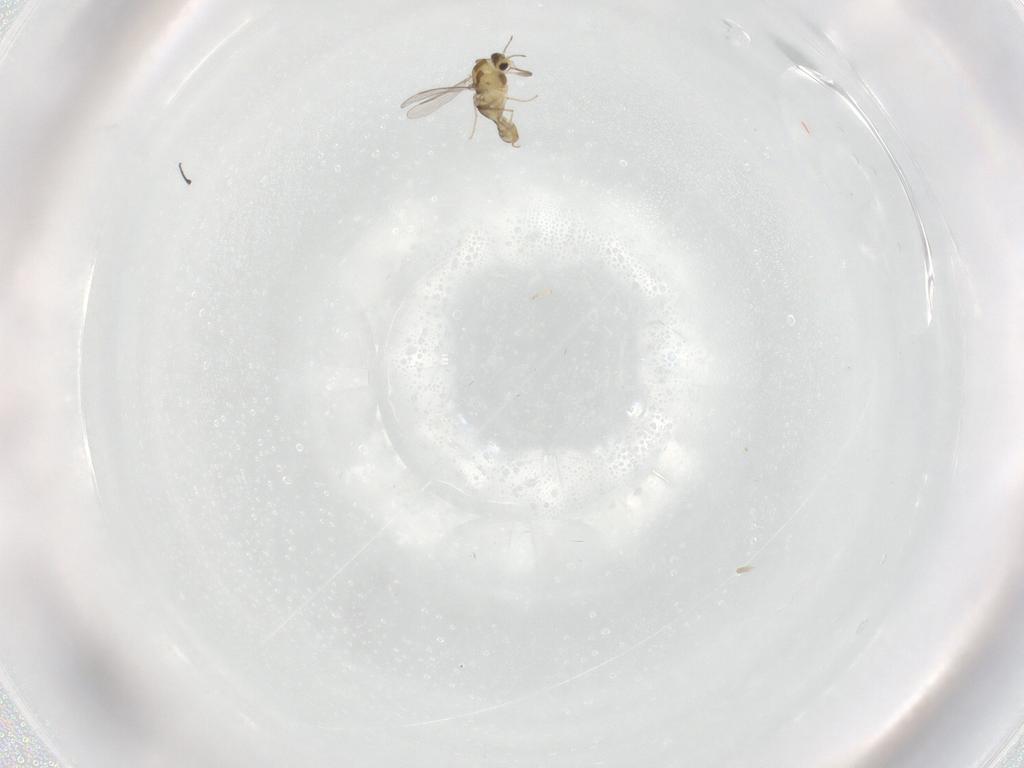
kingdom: Animalia
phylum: Arthropoda
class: Insecta
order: Diptera
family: Chironomidae
